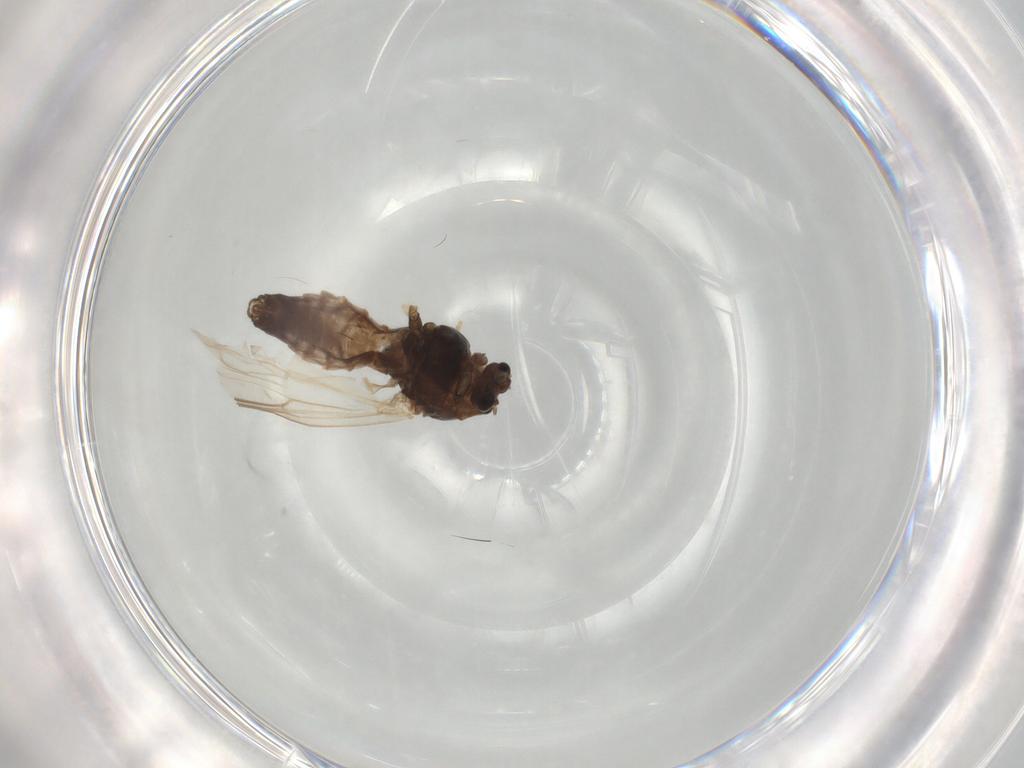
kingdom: Animalia
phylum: Arthropoda
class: Insecta
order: Diptera
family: Chironomidae
